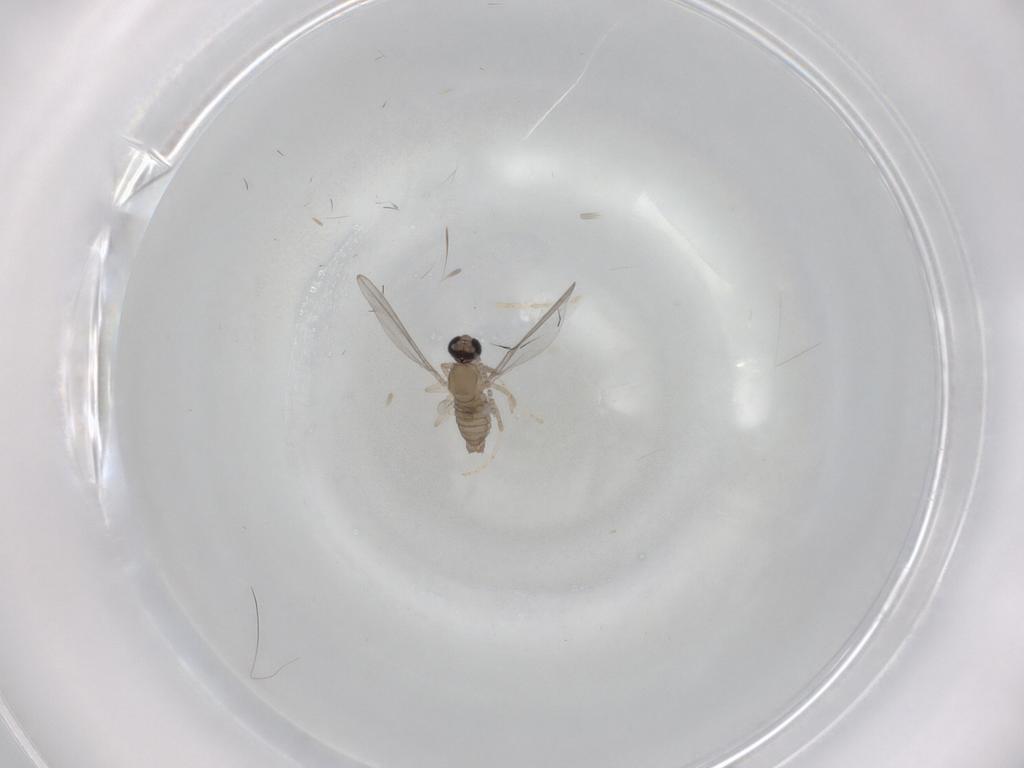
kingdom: Animalia
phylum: Arthropoda
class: Insecta
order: Diptera
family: Cecidomyiidae
